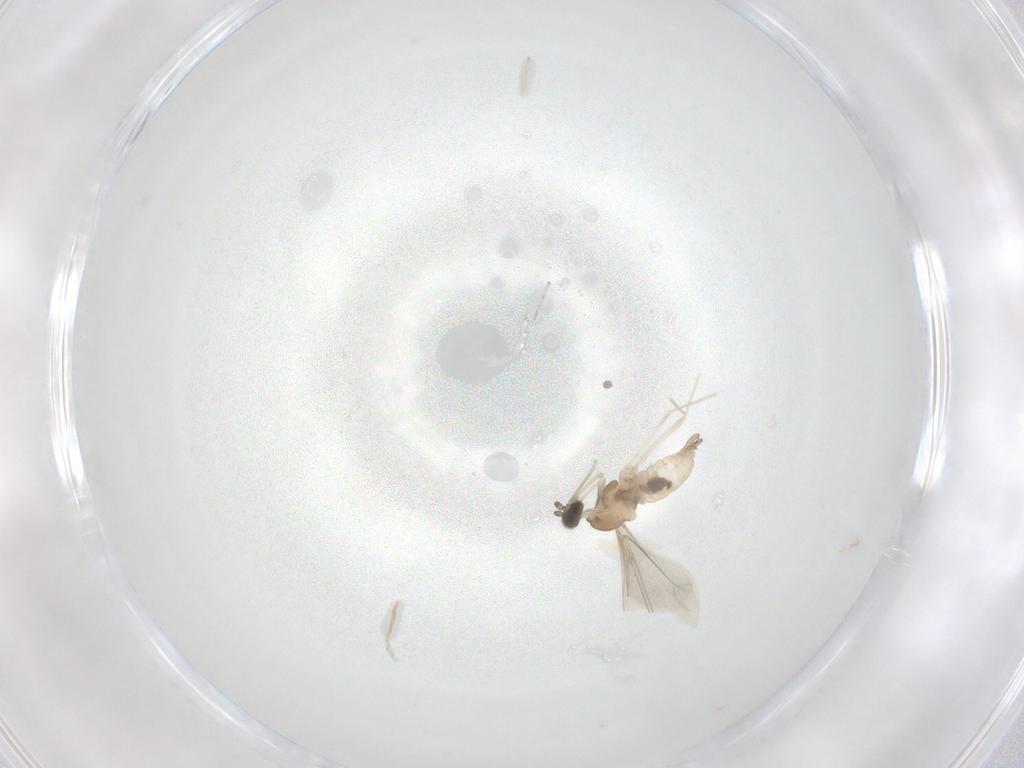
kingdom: Animalia
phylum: Arthropoda
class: Insecta
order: Diptera
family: Cecidomyiidae
